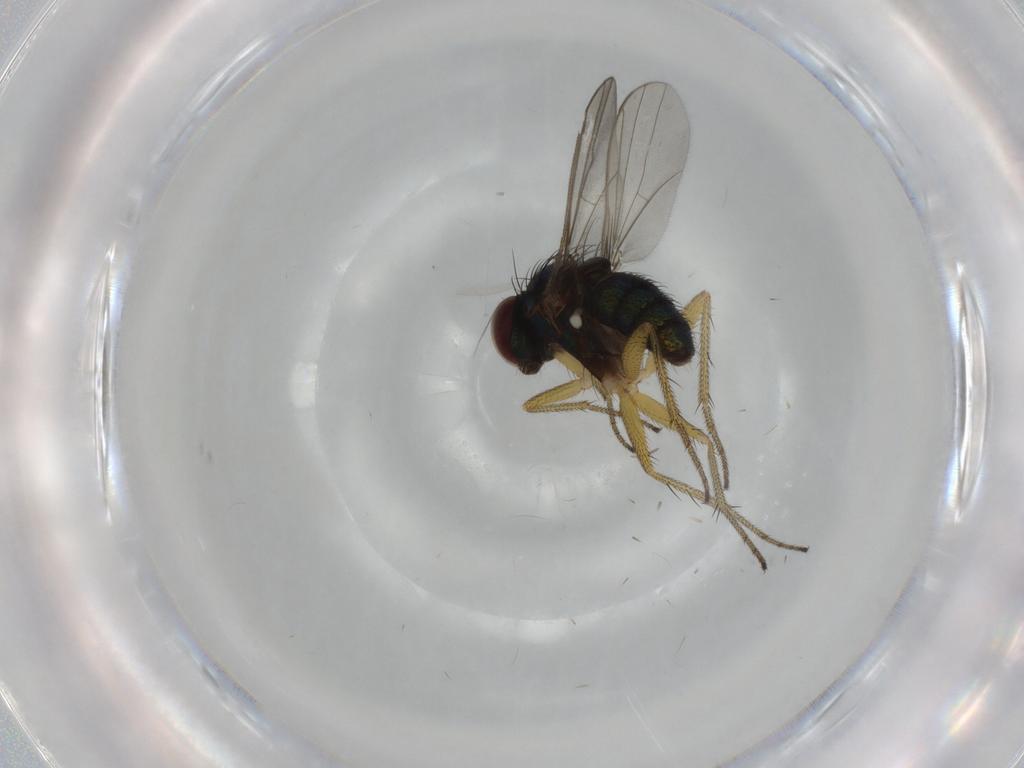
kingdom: Animalia
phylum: Arthropoda
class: Insecta
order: Diptera
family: Dolichopodidae
